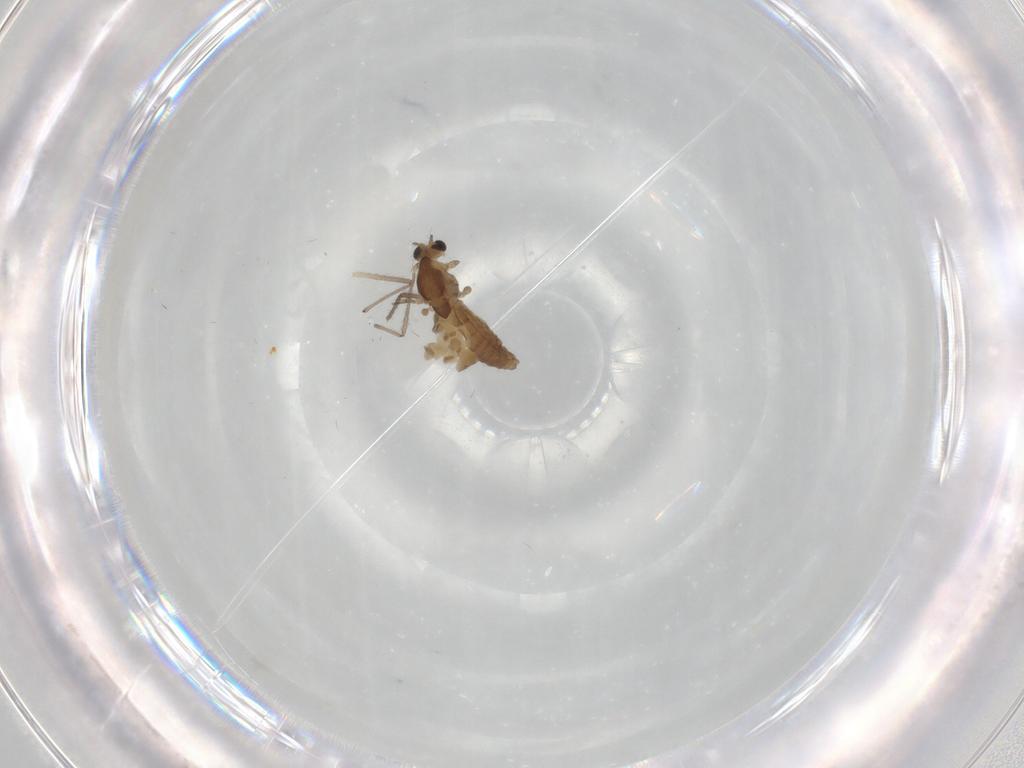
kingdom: Animalia
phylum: Arthropoda
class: Insecta
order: Diptera
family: Chironomidae
